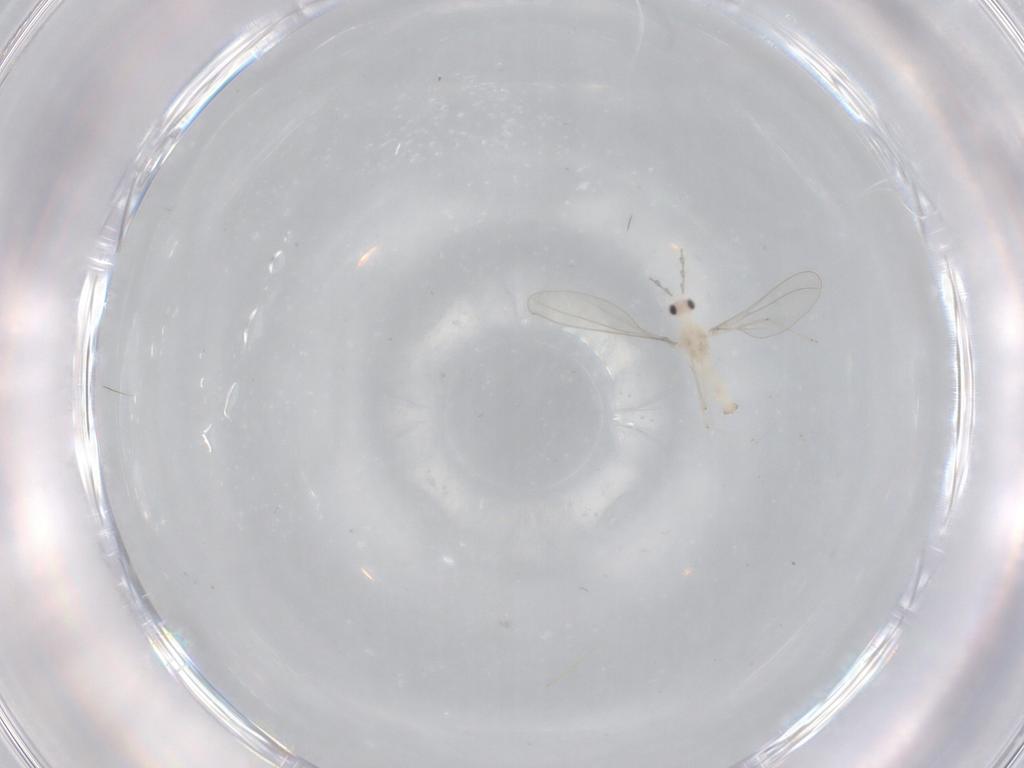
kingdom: Animalia
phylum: Arthropoda
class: Insecta
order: Diptera
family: Cecidomyiidae
